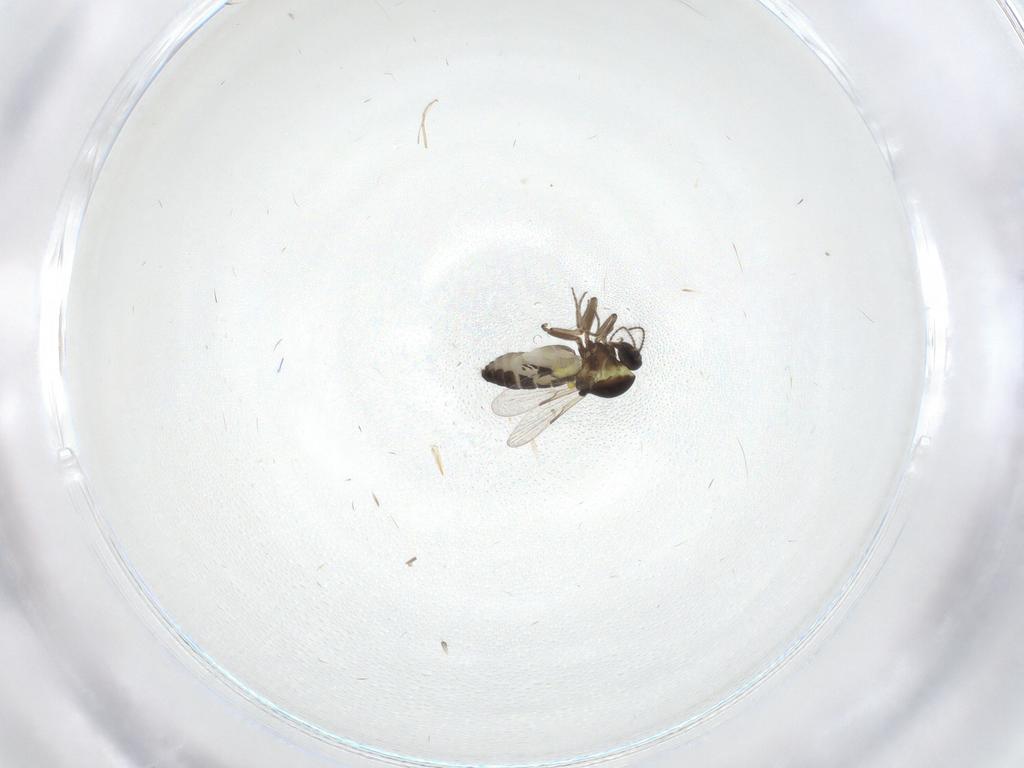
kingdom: Animalia
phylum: Arthropoda
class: Insecta
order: Diptera
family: Ceratopogonidae
